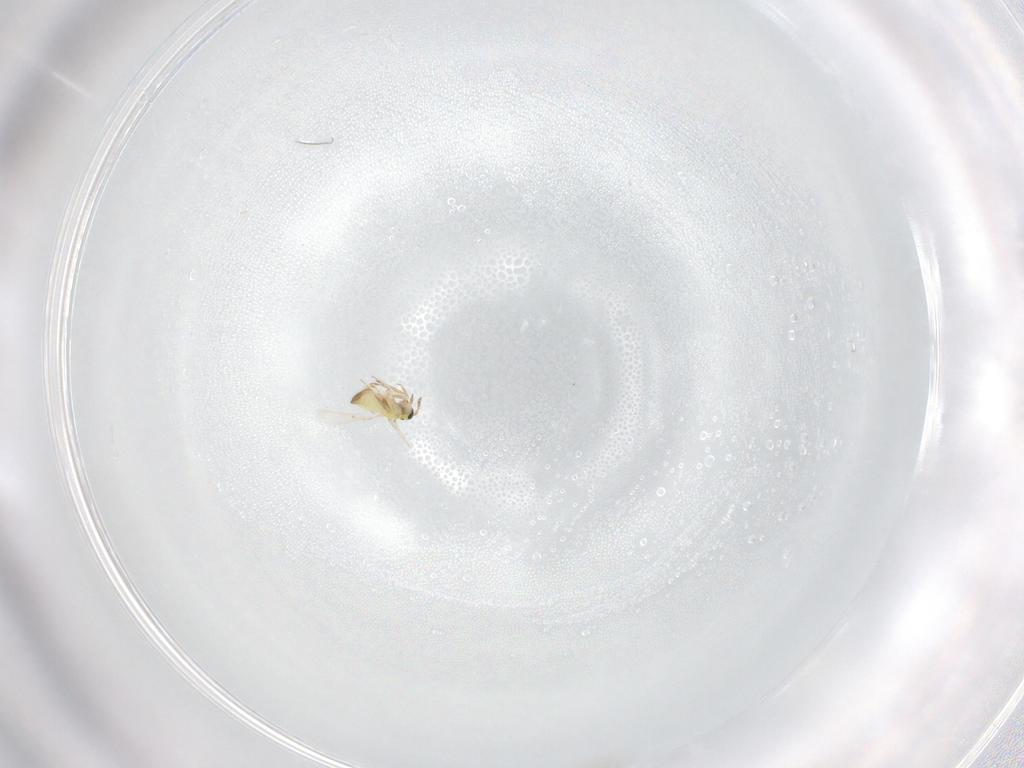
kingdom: Animalia
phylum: Arthropoda
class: Insecta
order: Hymenoptera
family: Trichogrammatidae
